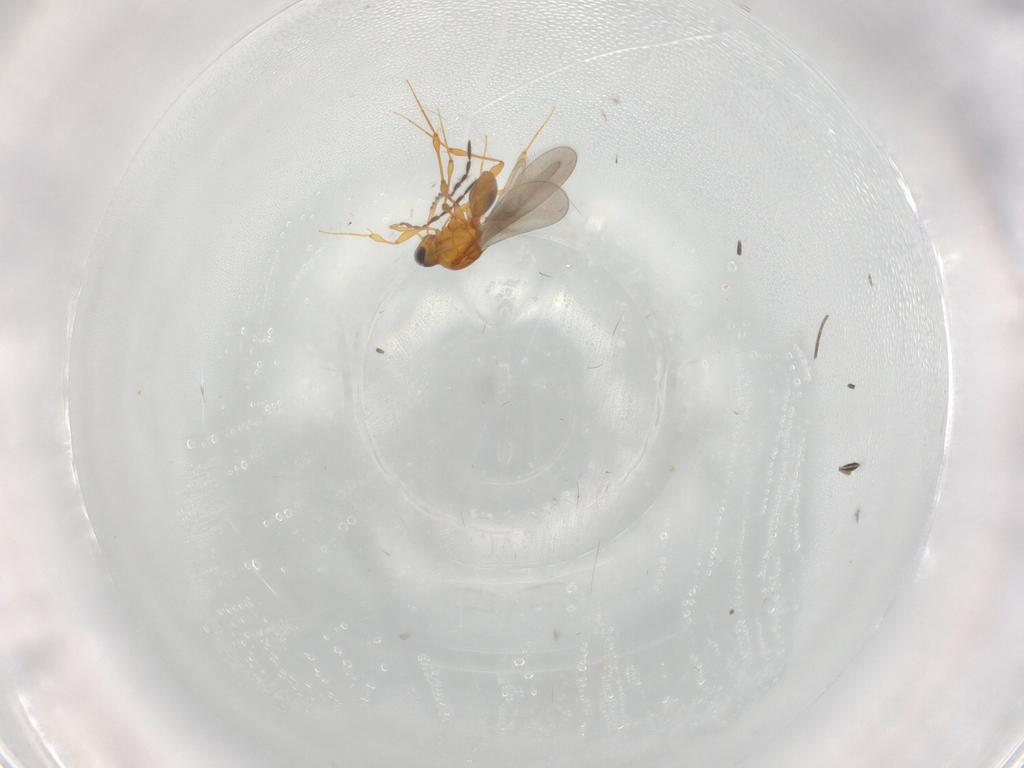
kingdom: Animalia
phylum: Arthropoda
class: Insecta
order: Hymenoptera
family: Platygastridae
